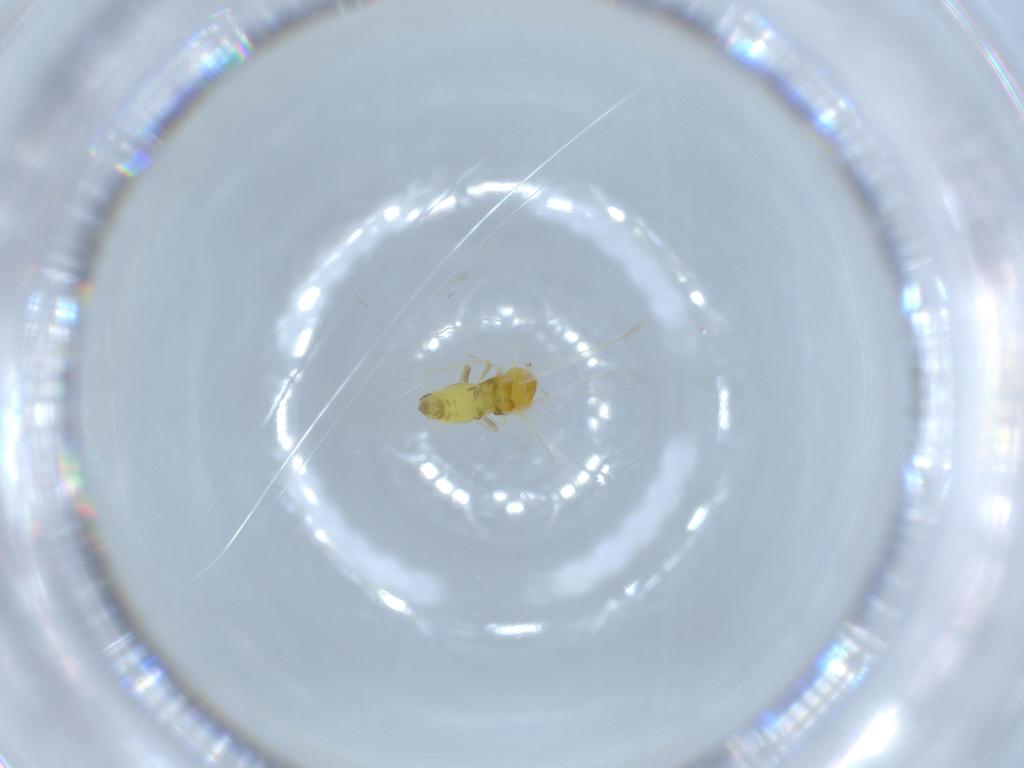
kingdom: Animalia
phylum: Arthropoda
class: Insecta
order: Hemiptera
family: Aleyrodidae
